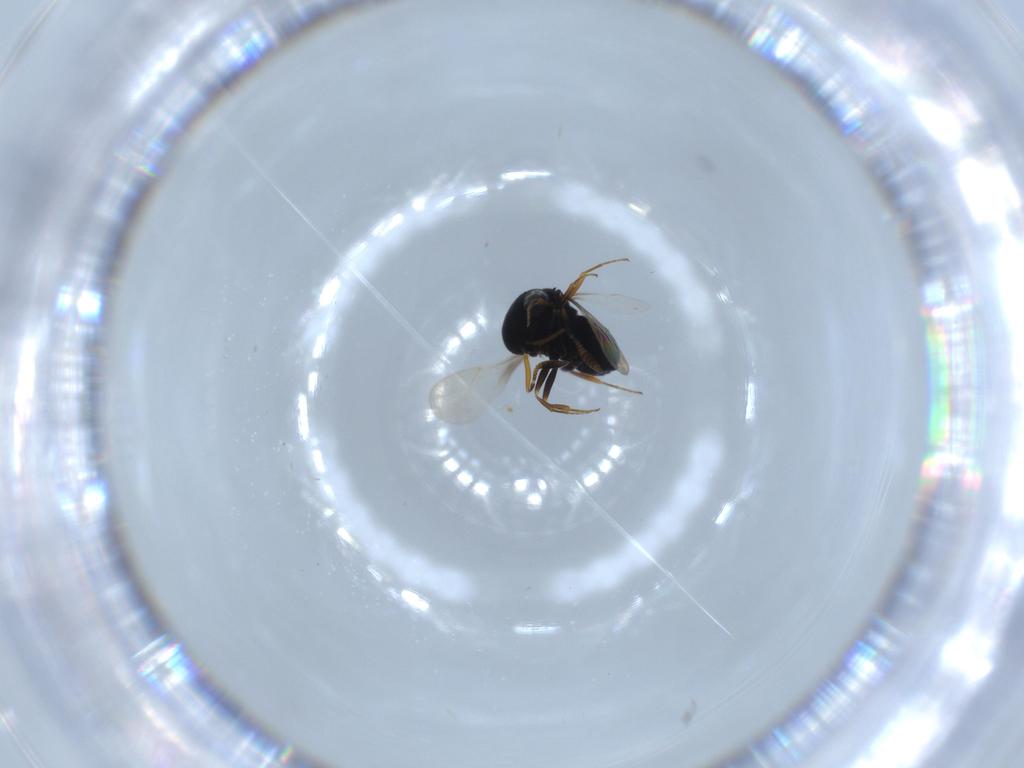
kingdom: Animalia
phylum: Arthropoda
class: Insecta
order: Hymenoptera
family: Scelionidae
